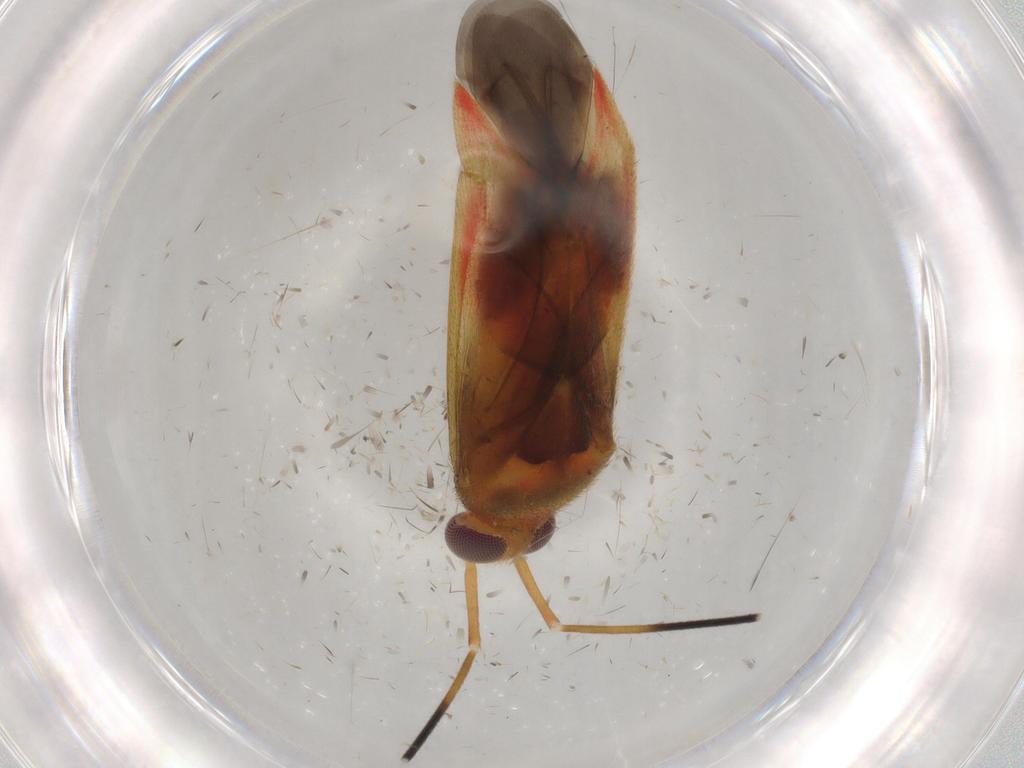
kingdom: Animalia
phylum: Arthropoda
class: Insecta
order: Hemiptera
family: Miridae
